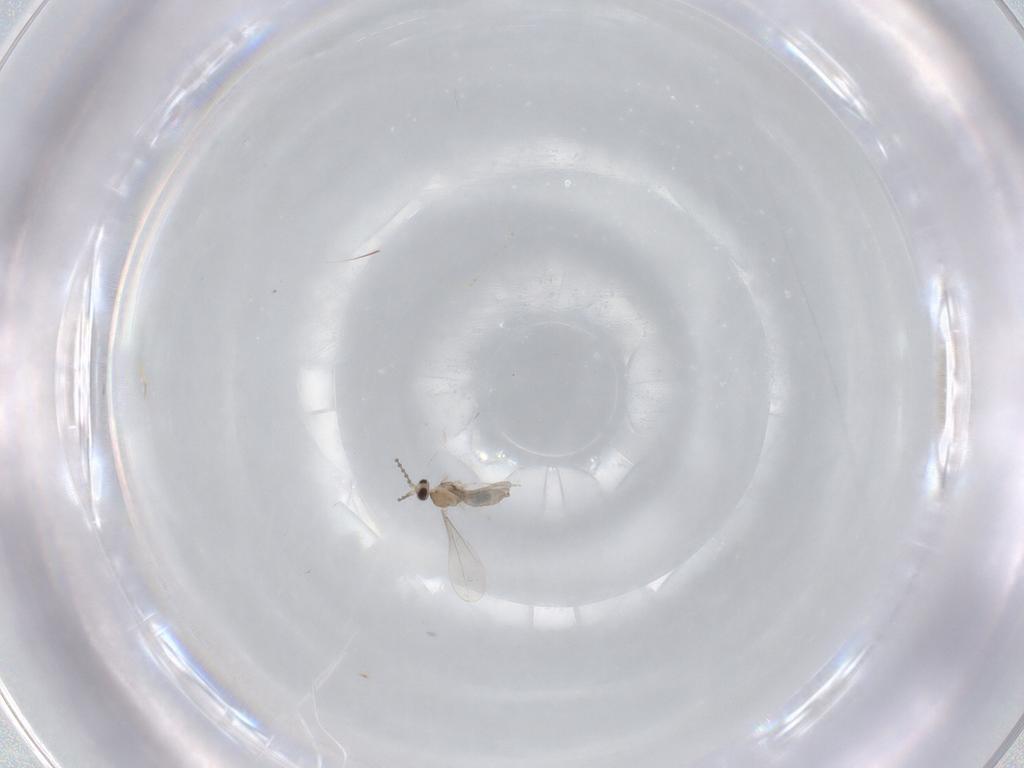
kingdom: Animalia
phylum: Arthropoda
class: Insecta
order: Diptera
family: Cecidomyiidae
